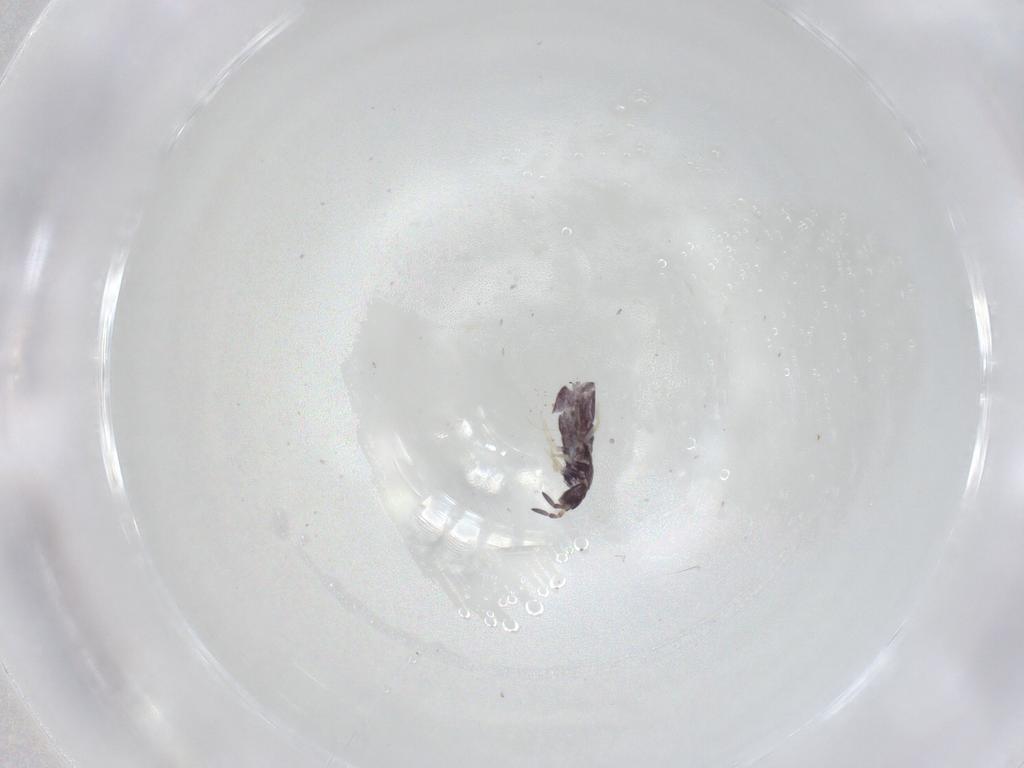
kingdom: Animalia
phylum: Arthropoda
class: Collembola
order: Entomobryomorpha
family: Entomobryidae
